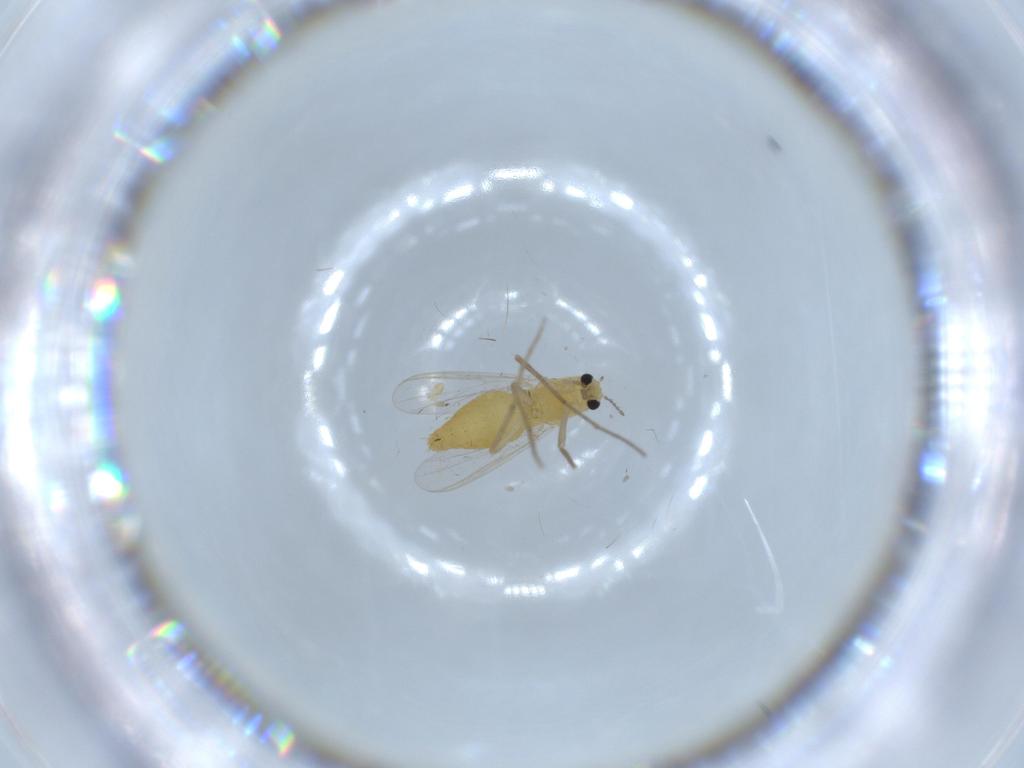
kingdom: Animalia
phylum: Arthropoda
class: Insecta
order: Diptera
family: Chironomidae
